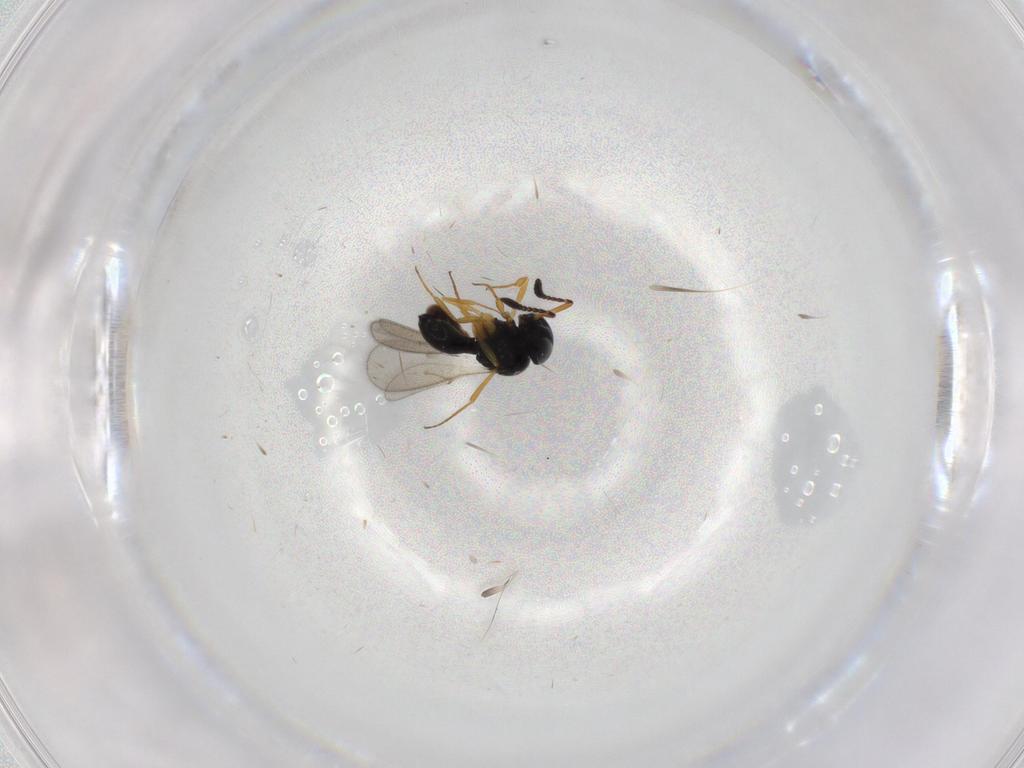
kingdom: Animalia
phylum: Arthropoda
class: Insecta
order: Hymenoptera
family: Scelionidae
